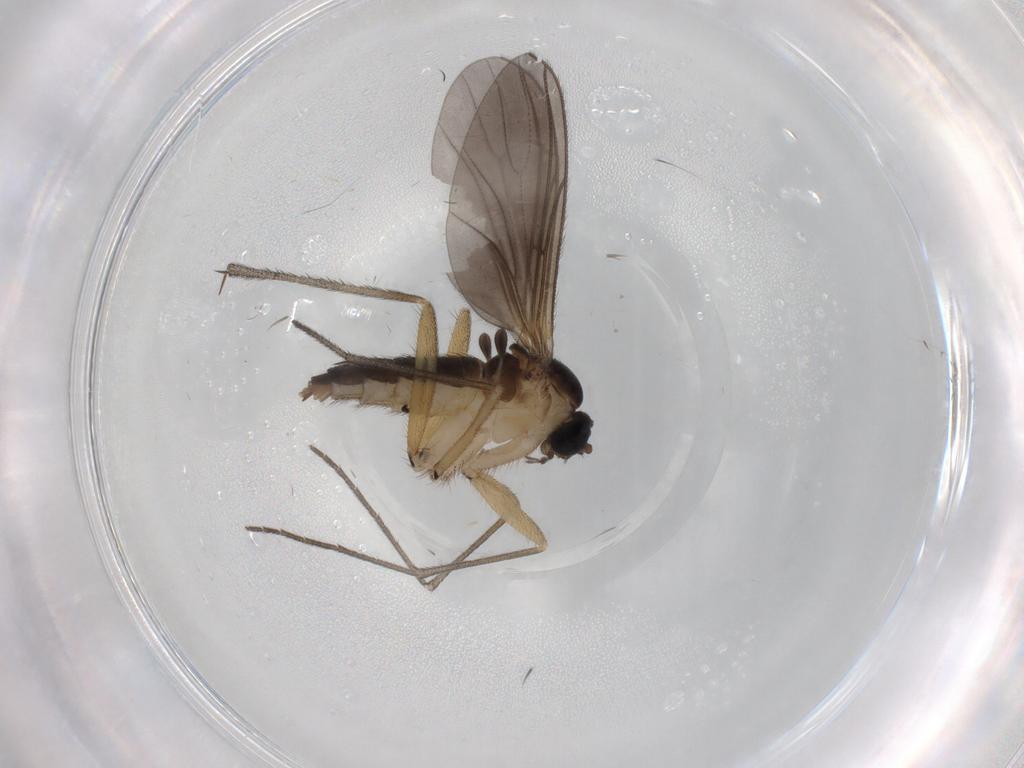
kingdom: Animalia
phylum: Arthropoda
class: Insecta
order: Diptera
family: Sciaridae
